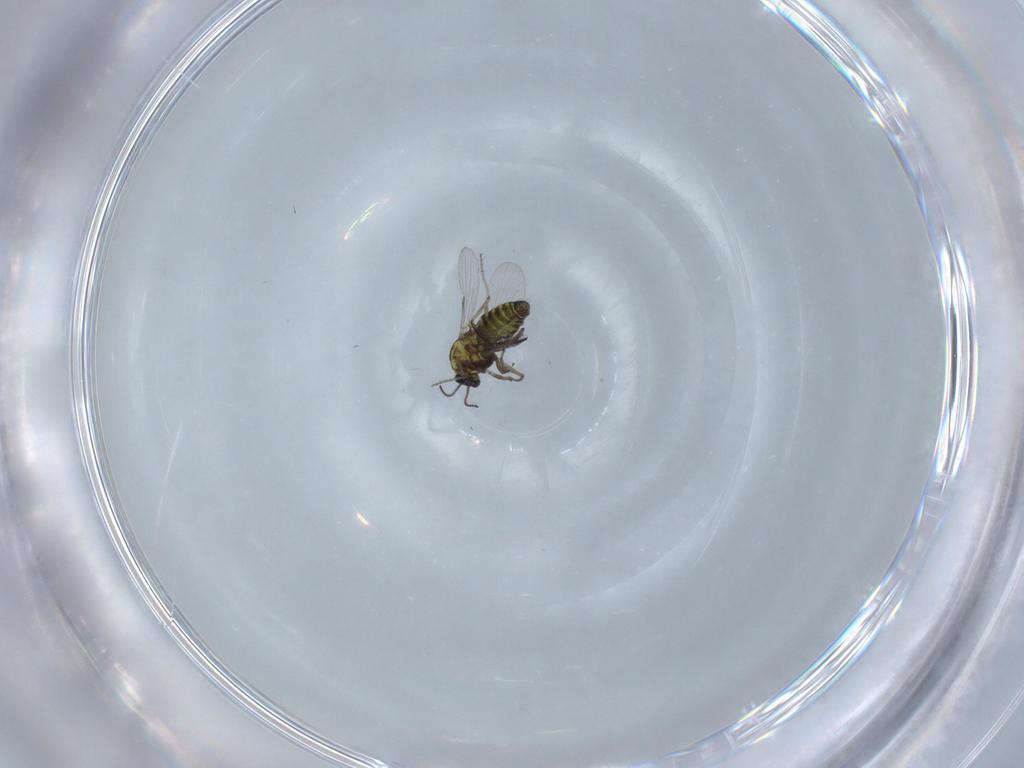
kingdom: Animalia
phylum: Arthropoda
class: Insecta
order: Diptera
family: Ceratopogonidae
